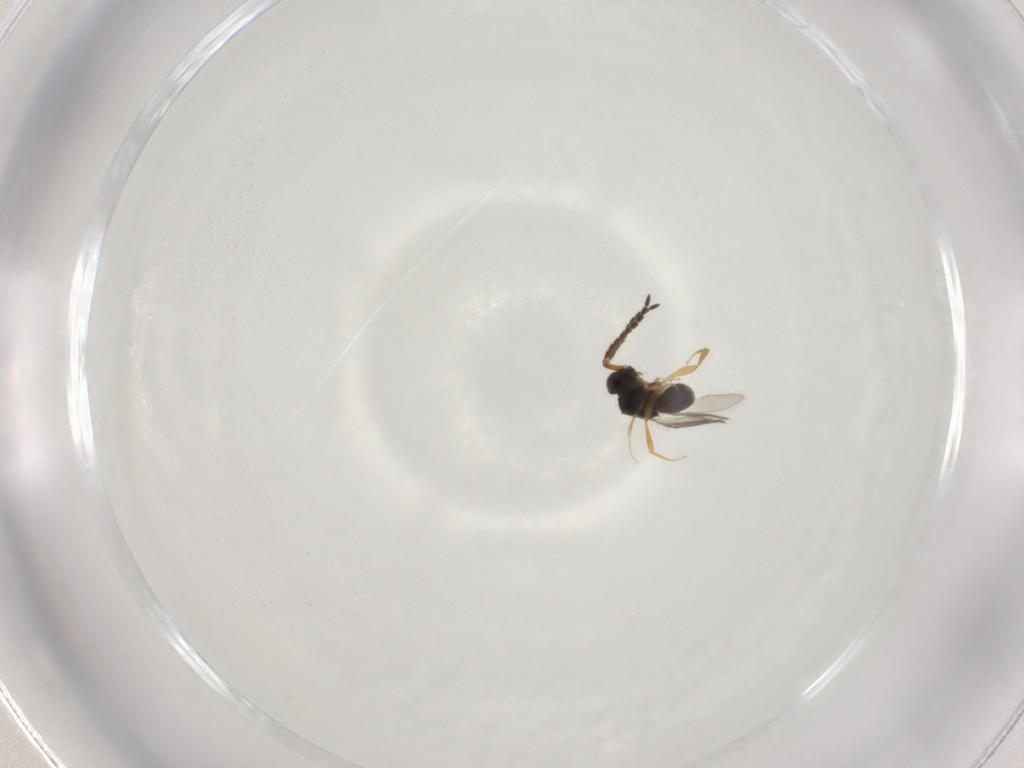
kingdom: Animalia
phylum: Arthropoda
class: Insecta
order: Hymenoptera
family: Ceraphronidae
